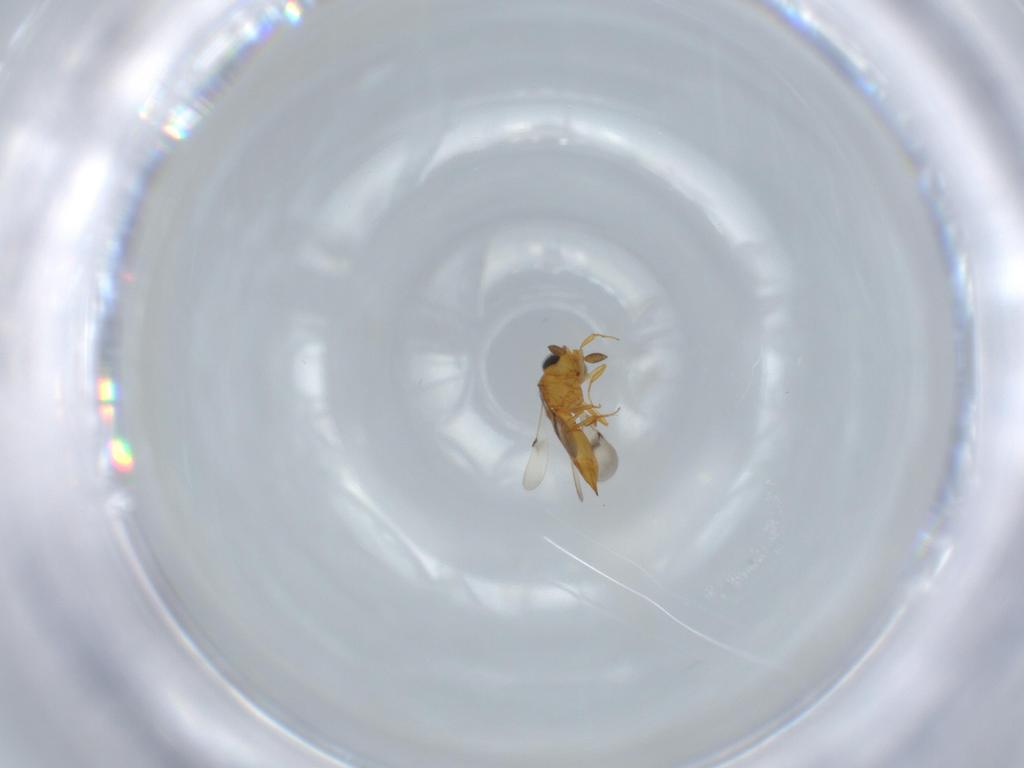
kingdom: Animalia
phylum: Arthropoda
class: Insecta
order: Hymenoptera
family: Scelionidae
